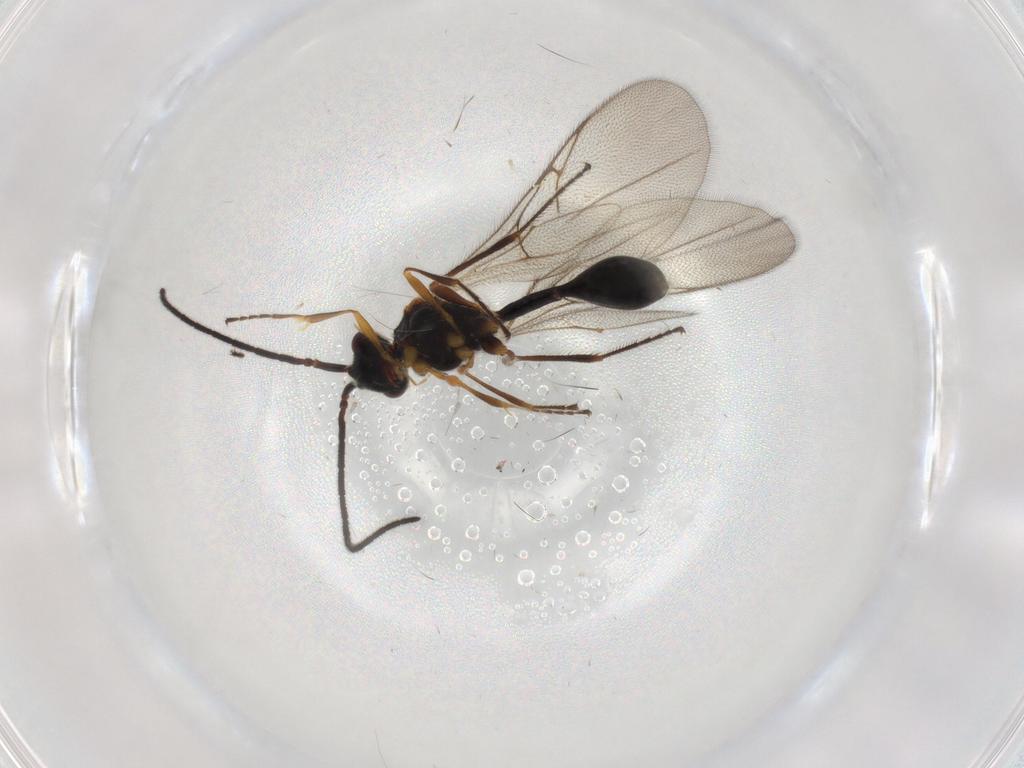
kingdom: Animalia
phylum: Arthropoda
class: Insecta
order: Hymenoptera
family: Diapriidae
